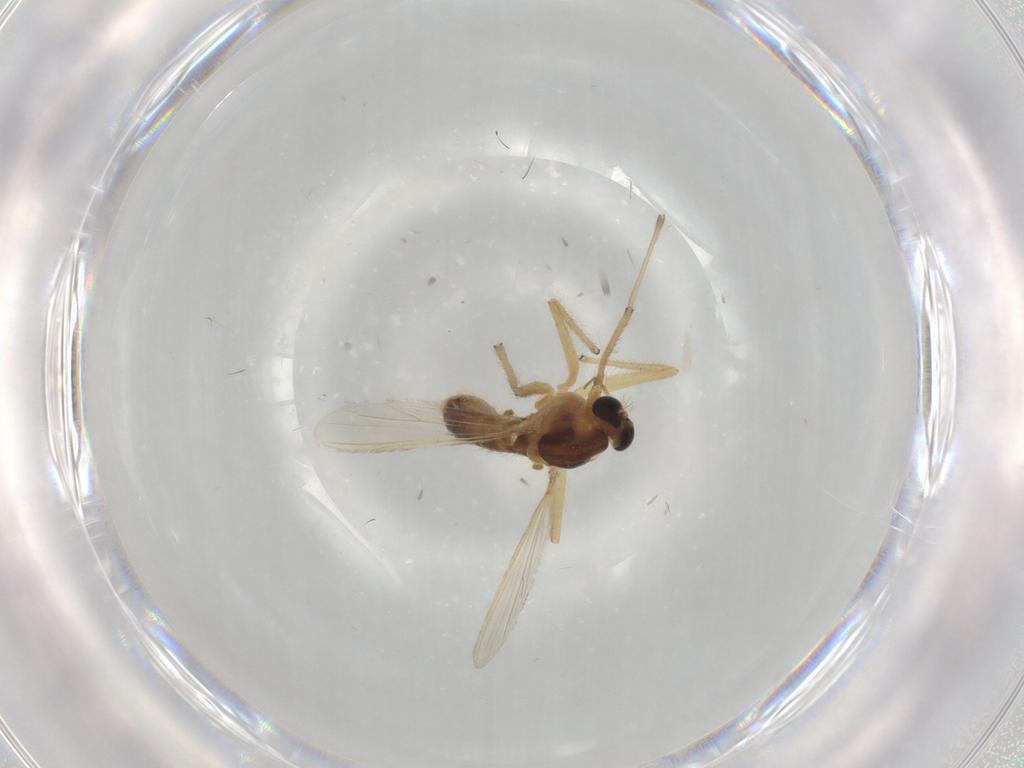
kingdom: Animalia
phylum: Arthropoda
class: Insecta
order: Diptera
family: Chironomidae
